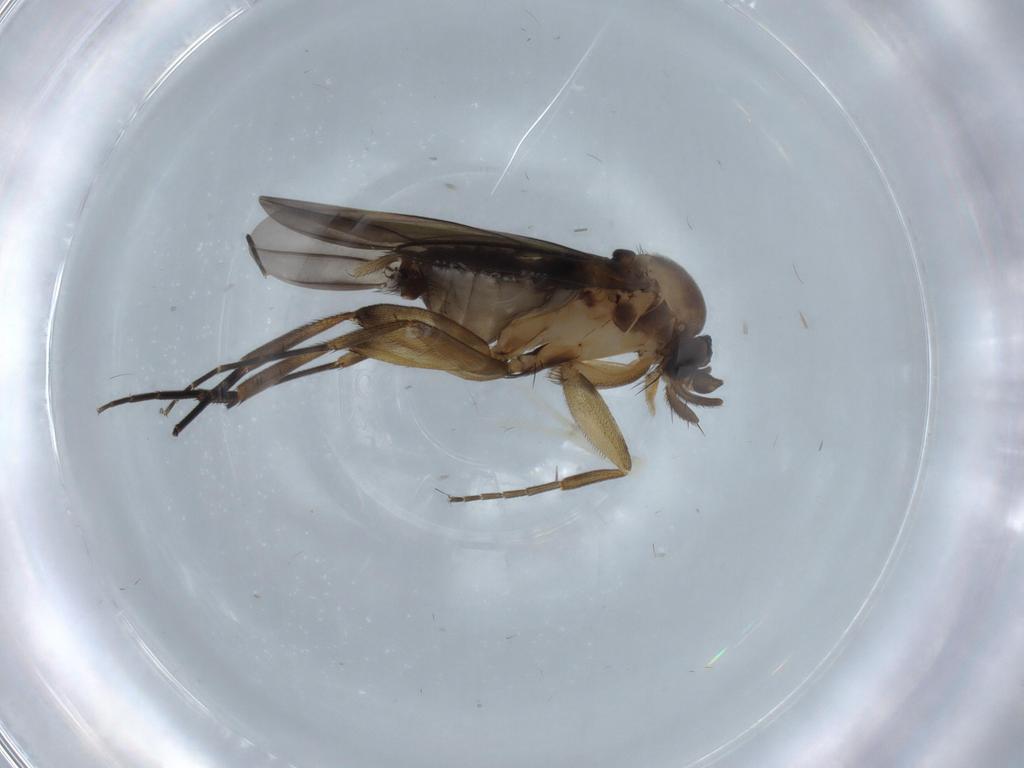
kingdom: Animalia
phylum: Arthropoda
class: Insecta
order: Diptera
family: Phoridae
